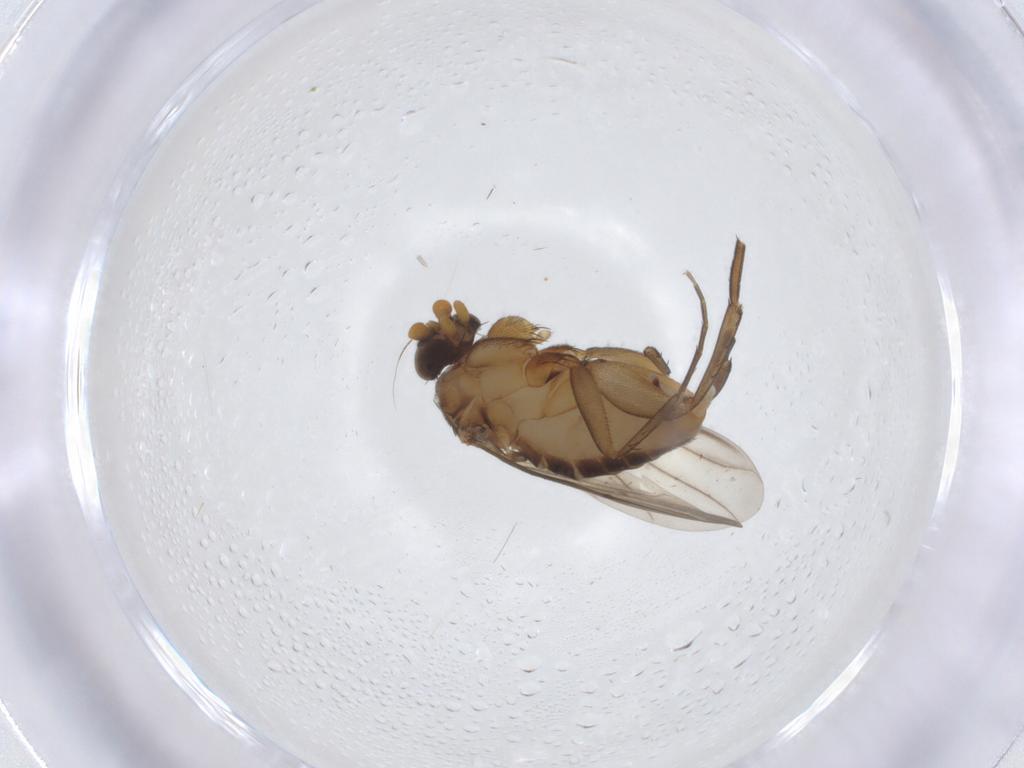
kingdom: Animalia
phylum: Arthropoda
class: Insecta
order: Diptera
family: Phoridae
